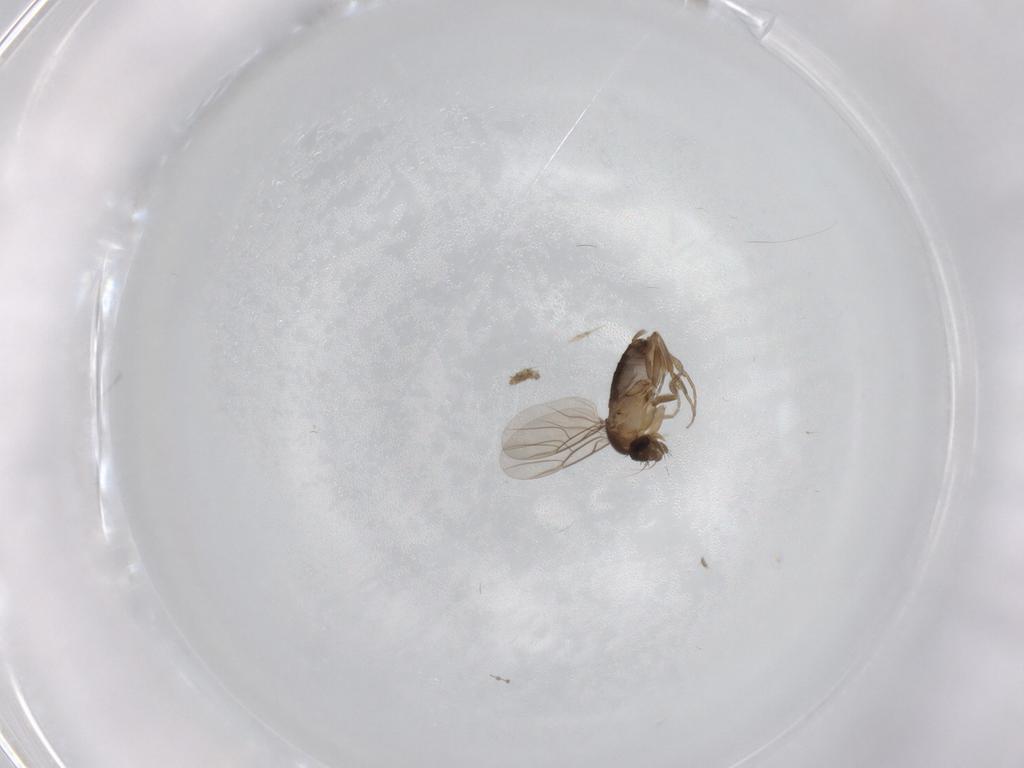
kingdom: Animalia
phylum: Arthropoda
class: Insecta
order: Diptera
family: Phoridae
